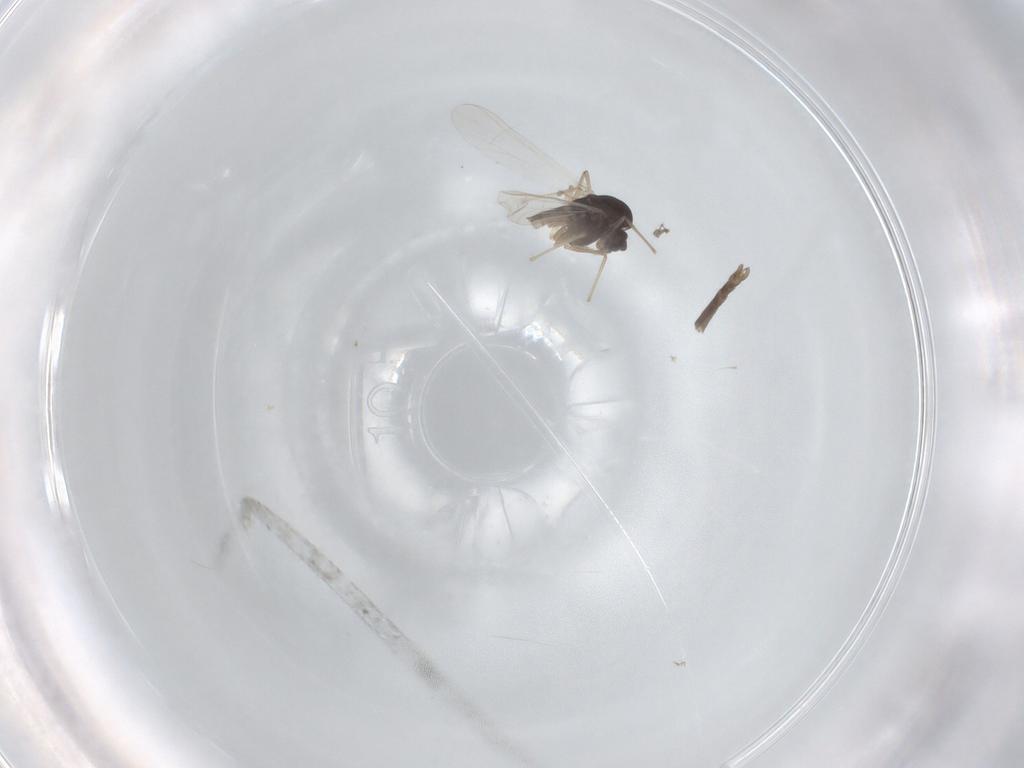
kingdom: Animalia
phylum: Arthropoda
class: Insecta
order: Diptera
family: Chironomidae
